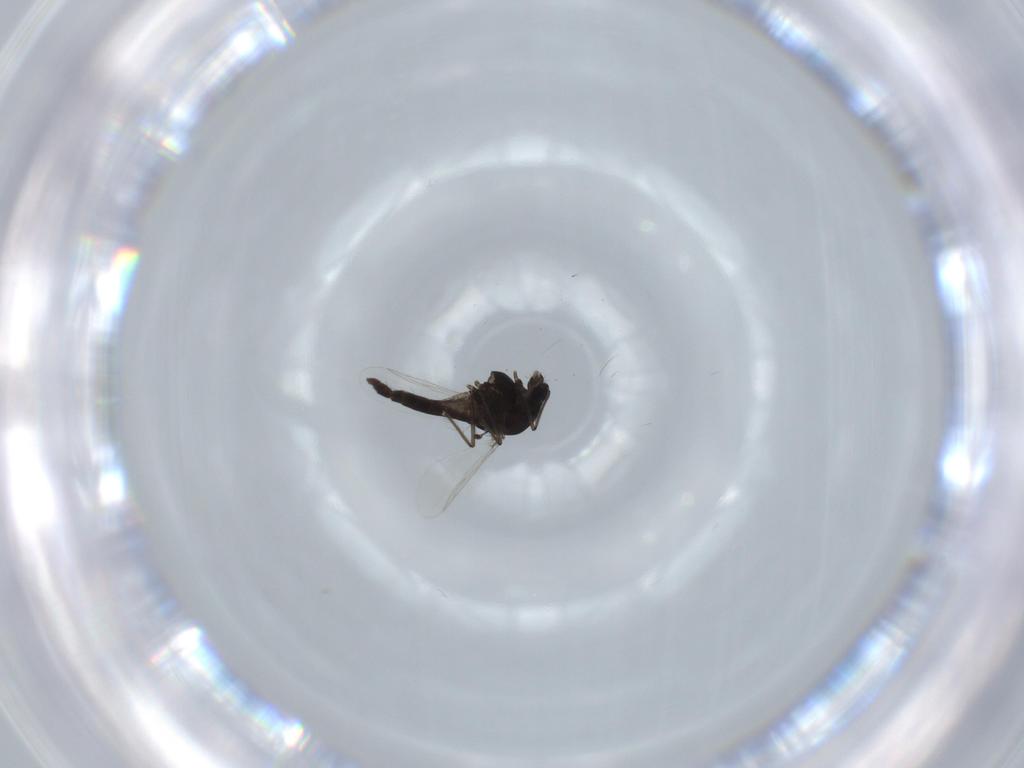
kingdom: Animalia
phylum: Arthropoda
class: Insecta
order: Diptera
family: Chironomidae
